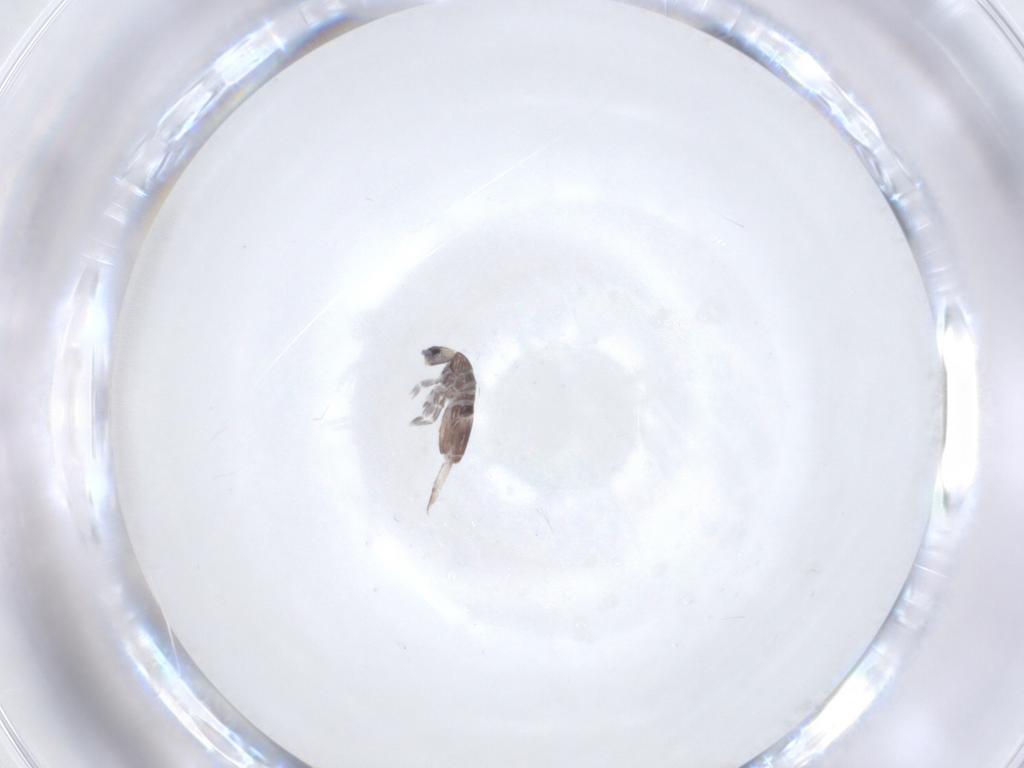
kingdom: Animalia
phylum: Arthropoda
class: Collembola
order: Entomobryomorpha
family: Entomobryidae
